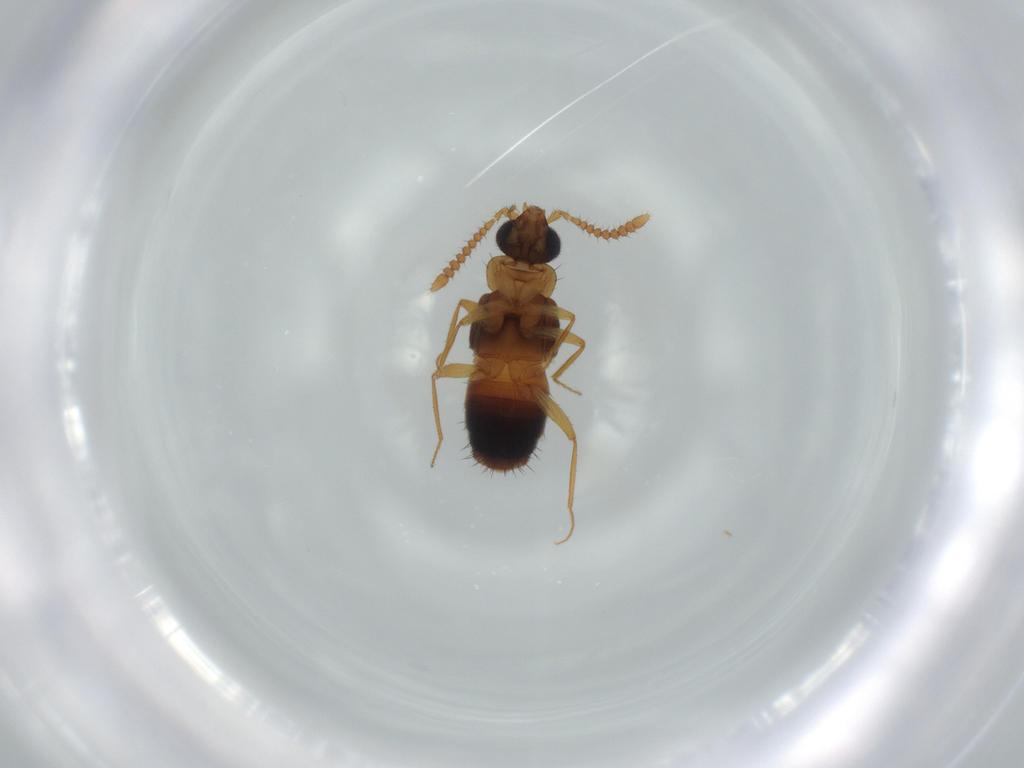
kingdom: Animalia
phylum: Arthropoda
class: Insecta
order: Coleoptera
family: Staphylinidae
